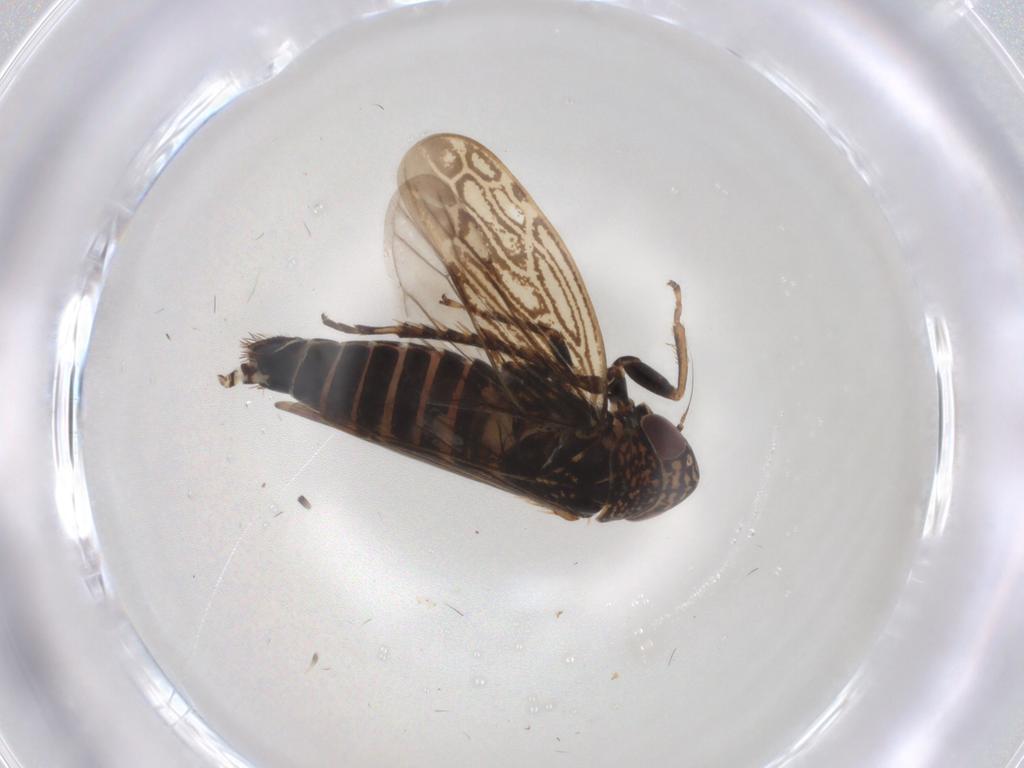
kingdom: Animalia
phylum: Arthropoda
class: Insecta
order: Hemiptera
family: Cicadellidae
